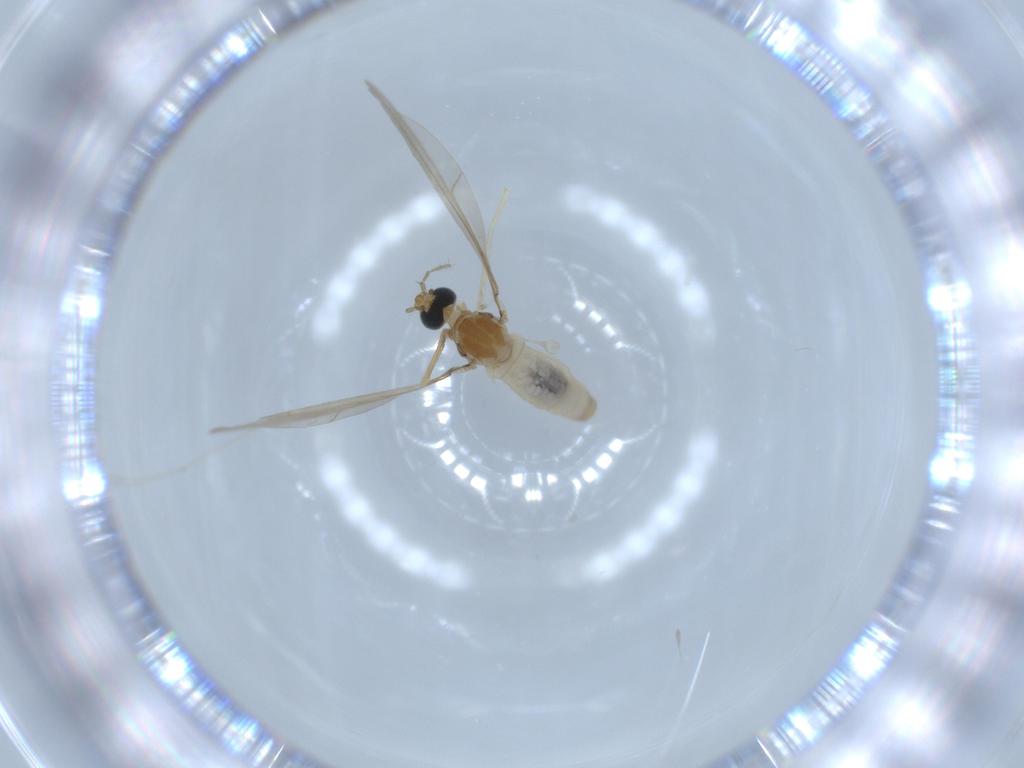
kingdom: Animalia
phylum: Arthropoda
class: Insecta
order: Diptera
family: Cecidomyiidae
